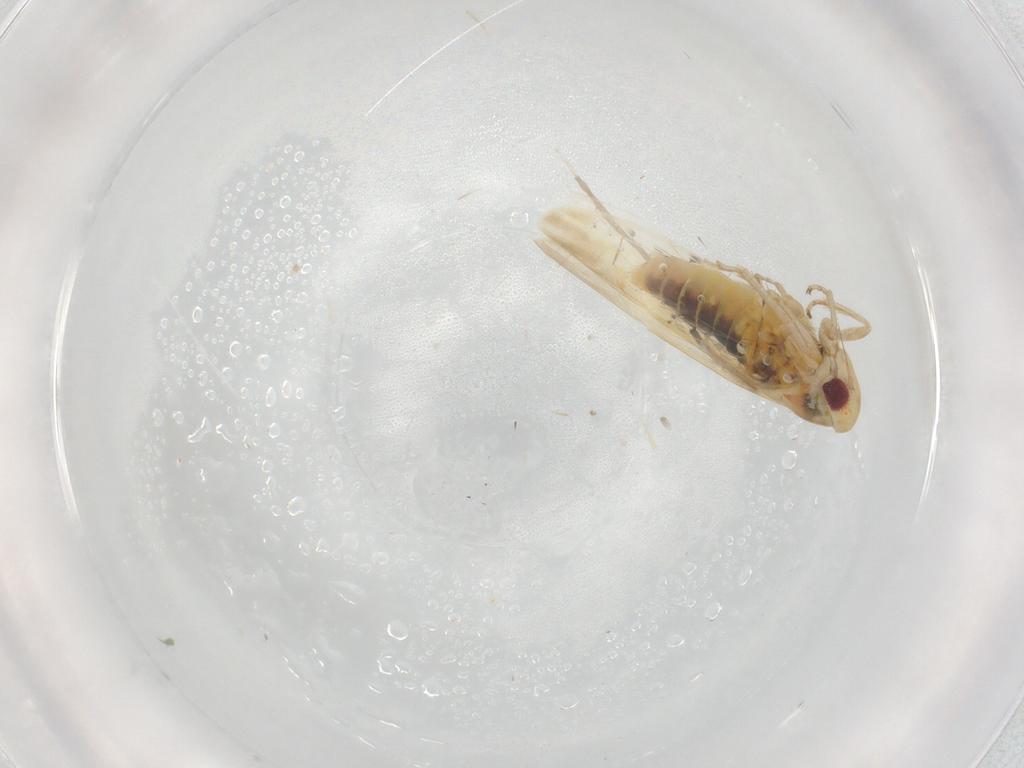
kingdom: Animalia
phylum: Arthropoda
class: Insecta
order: Hemiptera
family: Cicadellidae
